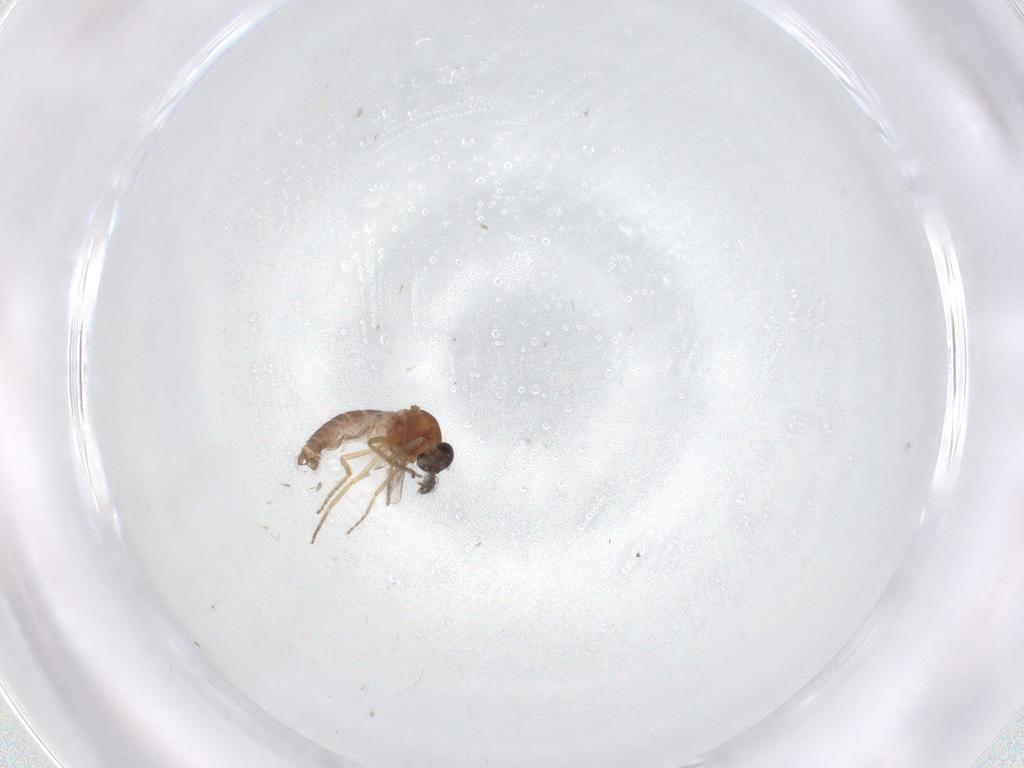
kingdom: Animalia
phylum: Arthropoda
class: Insecta
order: Diptera
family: Ceratopogonidae
